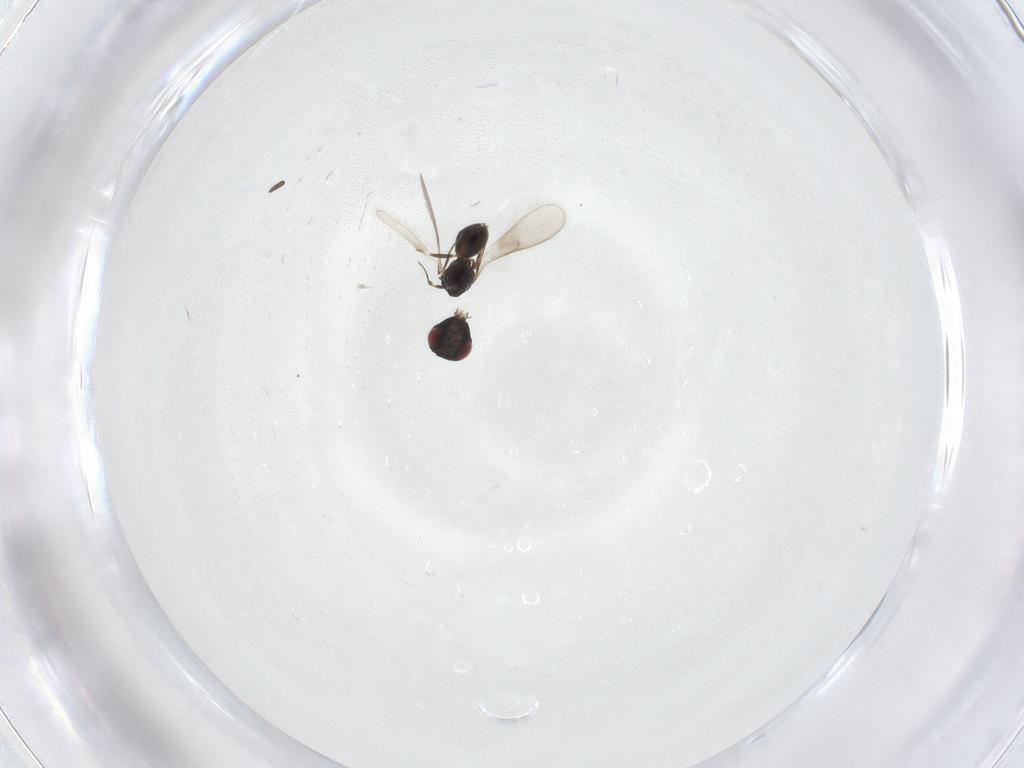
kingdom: Animalia
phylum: Arthropoda
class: Insecta
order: Hymenoptera
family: Scelionidae
